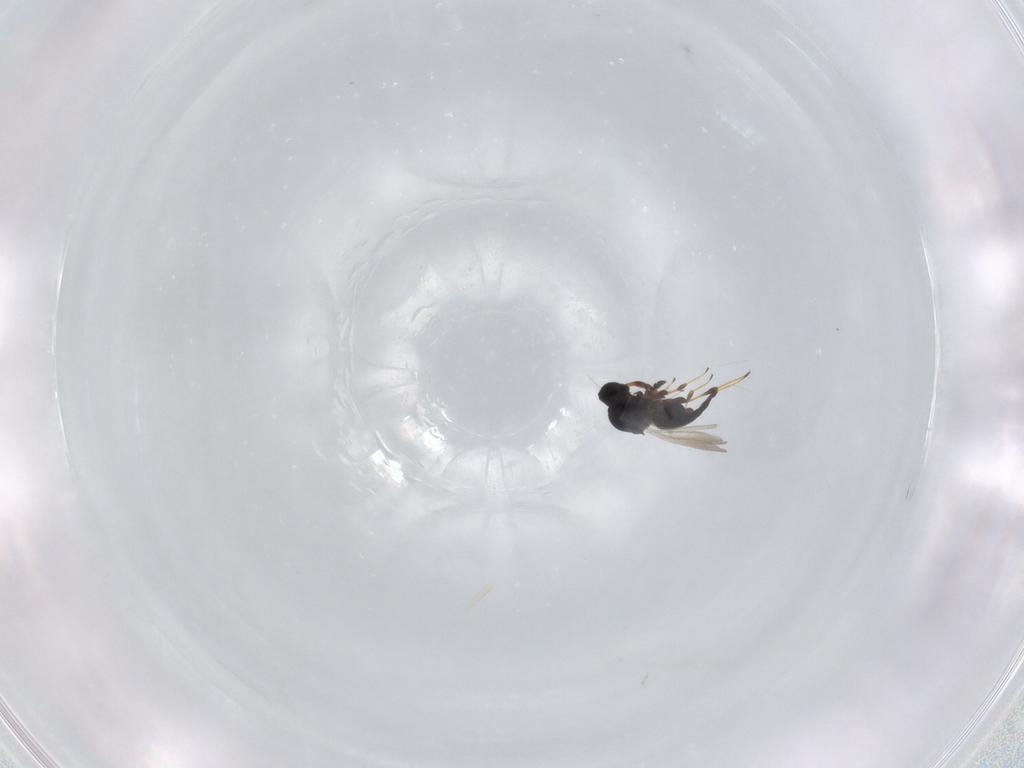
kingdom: Animalia
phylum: Arthropoda
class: Insecta
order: Hymenoptera
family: Platygastridae
